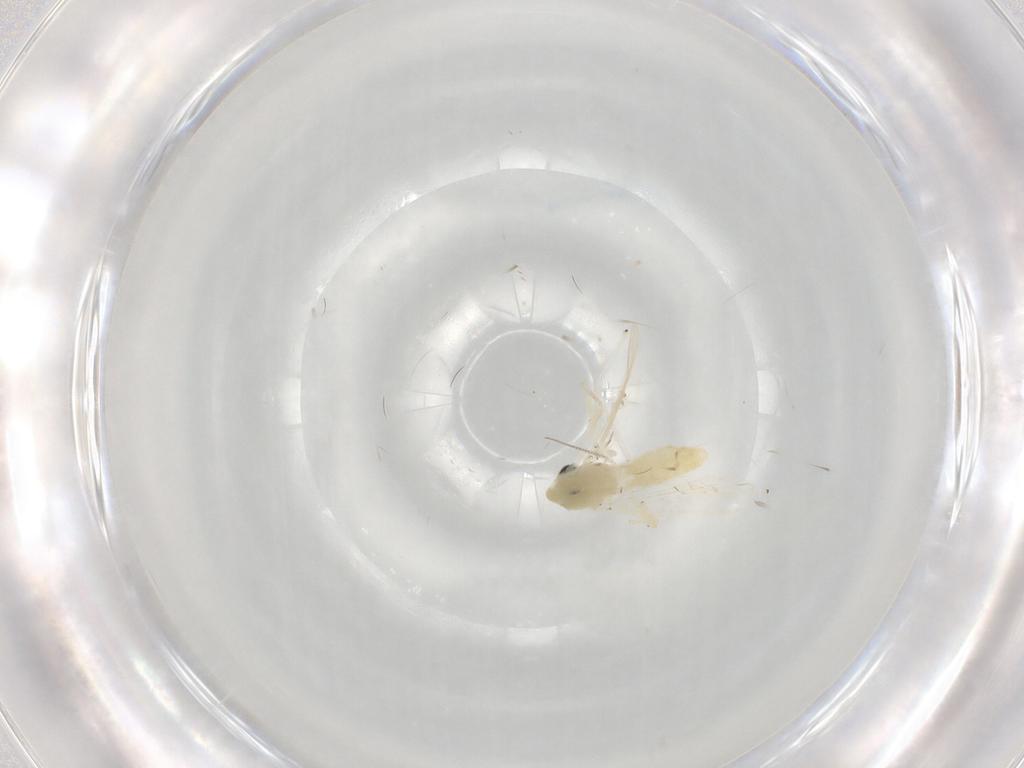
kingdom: Animalia
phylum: Arthropoda
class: Insecta
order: Diptera
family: Chironomidae
